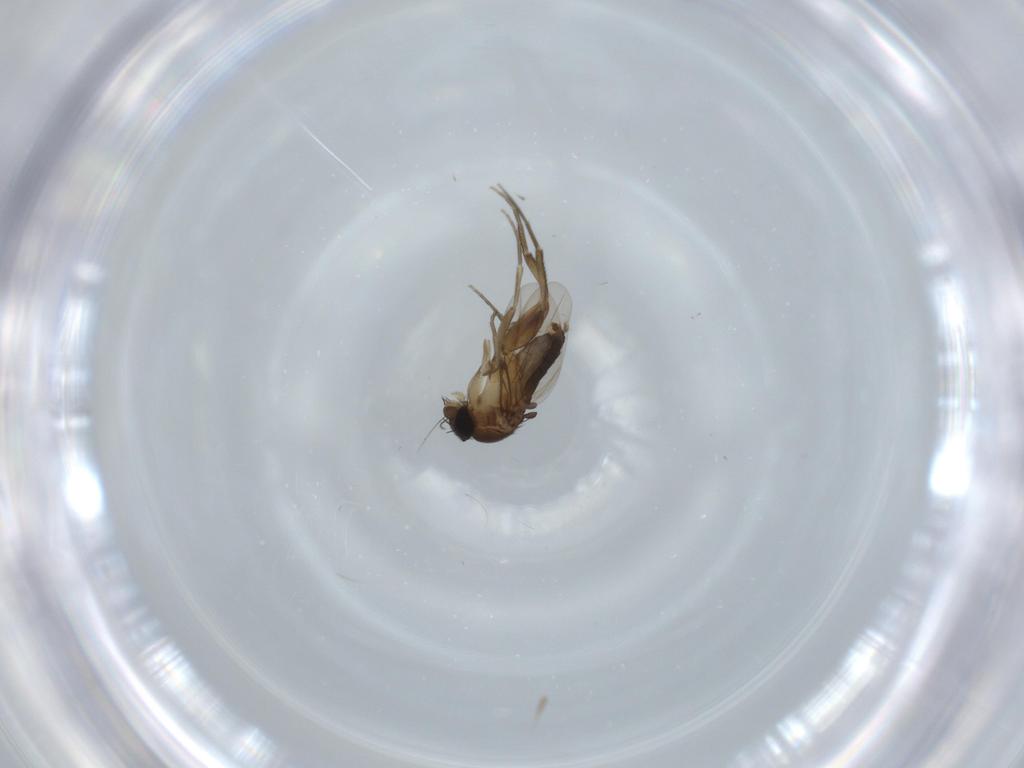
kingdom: Animalia
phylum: Arthropoda
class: Insecta
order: Diptera
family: Phoridae
